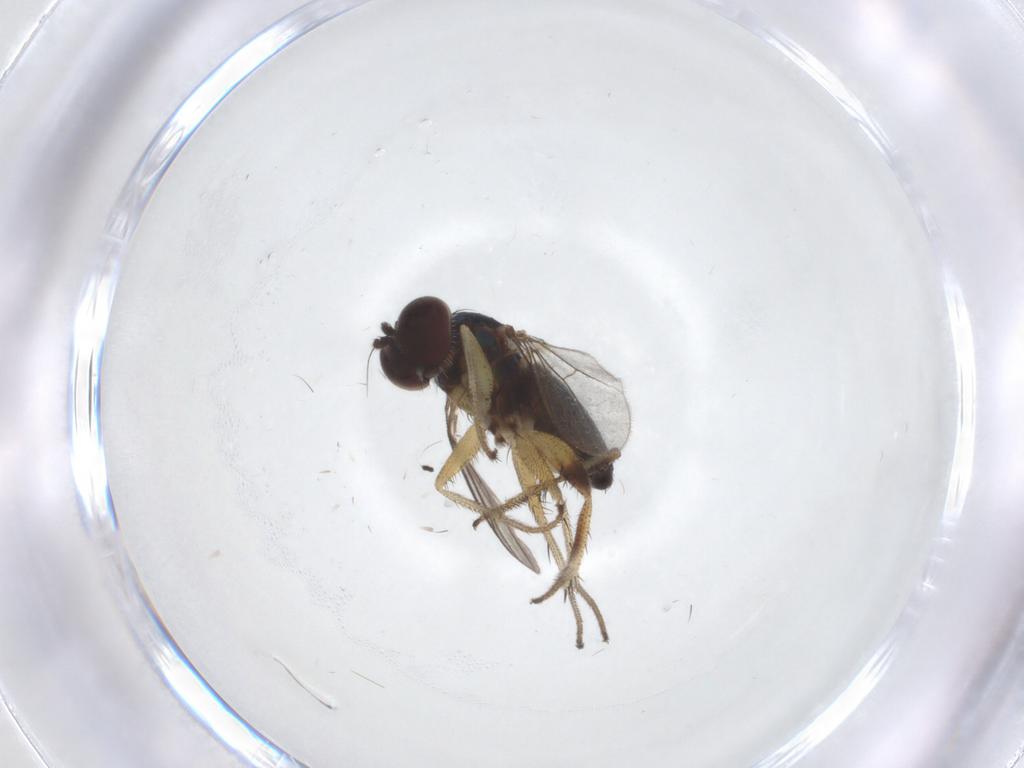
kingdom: Animalia
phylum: Arthropoda
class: Insecta
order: Diptera
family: Dolichopodidae
